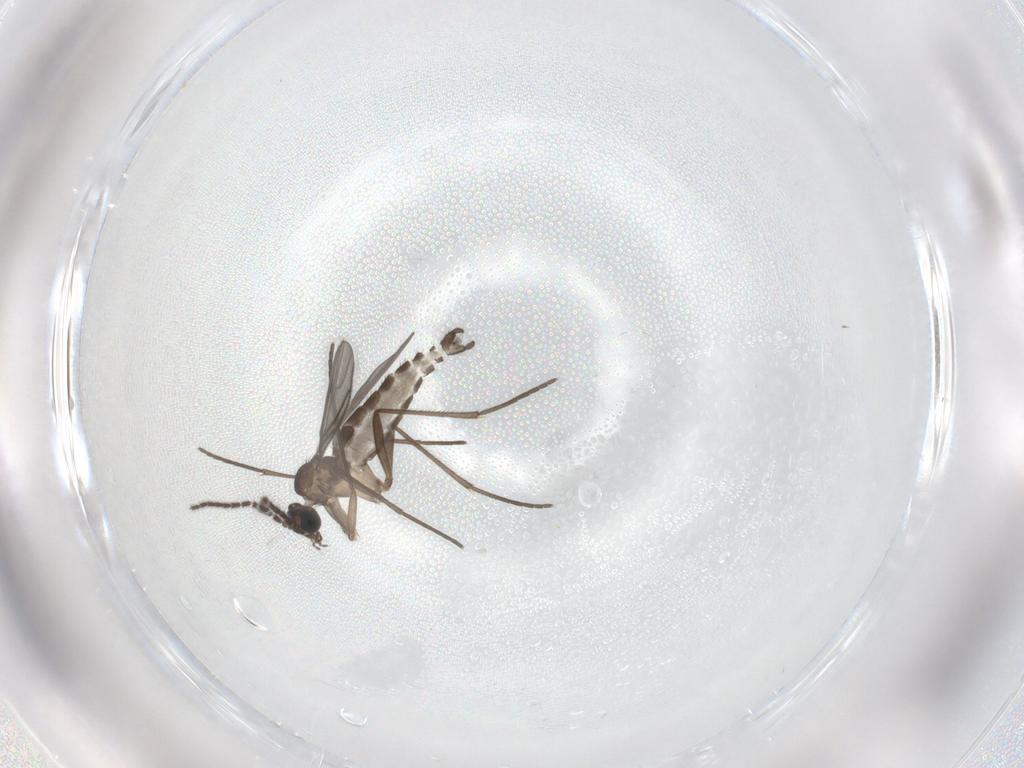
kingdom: Animalia
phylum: Arthropoda
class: Insecta
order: Diptera
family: Sciaridae
